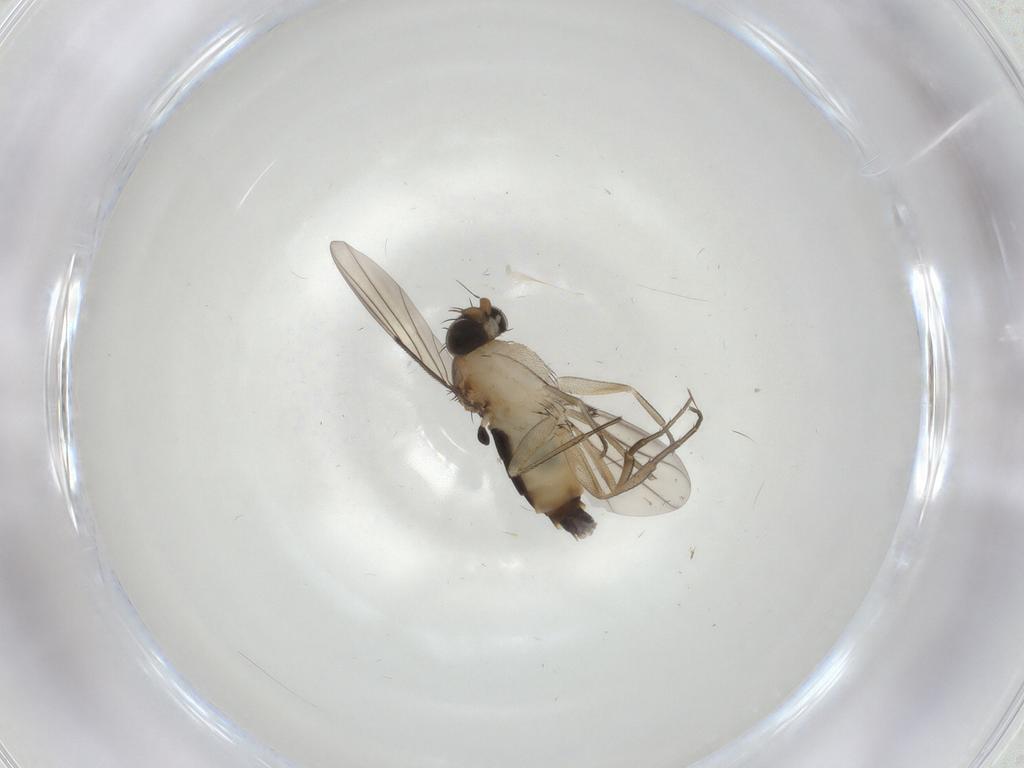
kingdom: Animalia
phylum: Arthropoda
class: Insecta
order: Diptera
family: Phoridae
